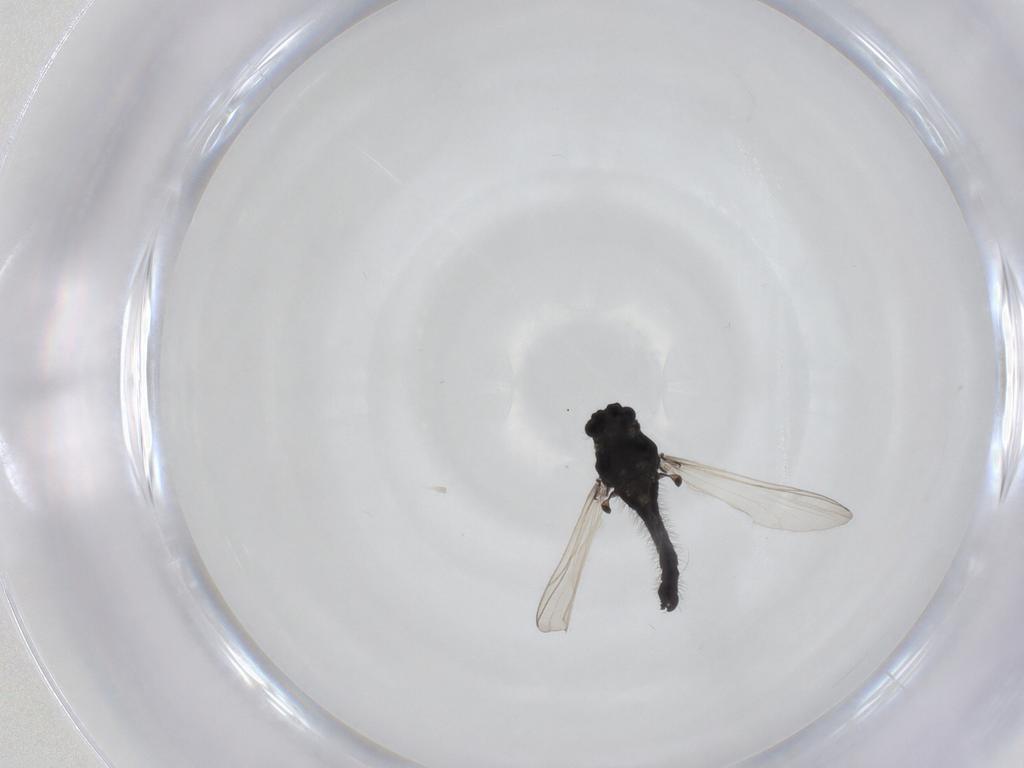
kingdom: Animalia
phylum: Arthropoda
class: Insecta
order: Diptera
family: Chironomidae
